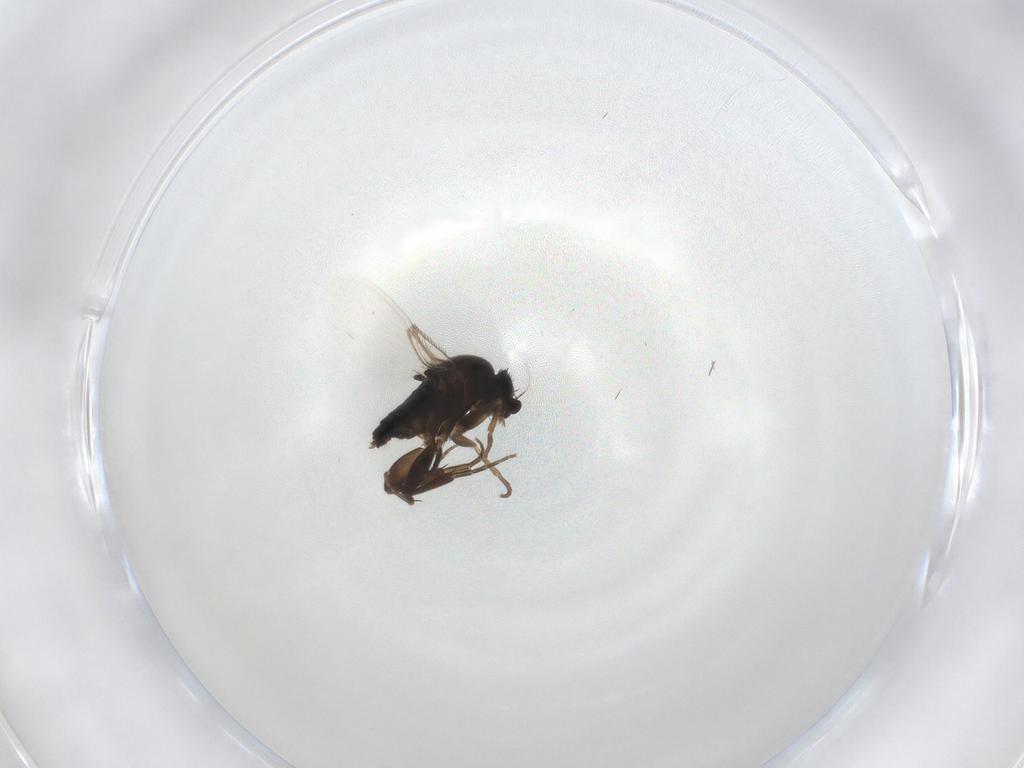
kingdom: Animalia
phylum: Arthropoda
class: Insecta
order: Diptera
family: Phoridae
